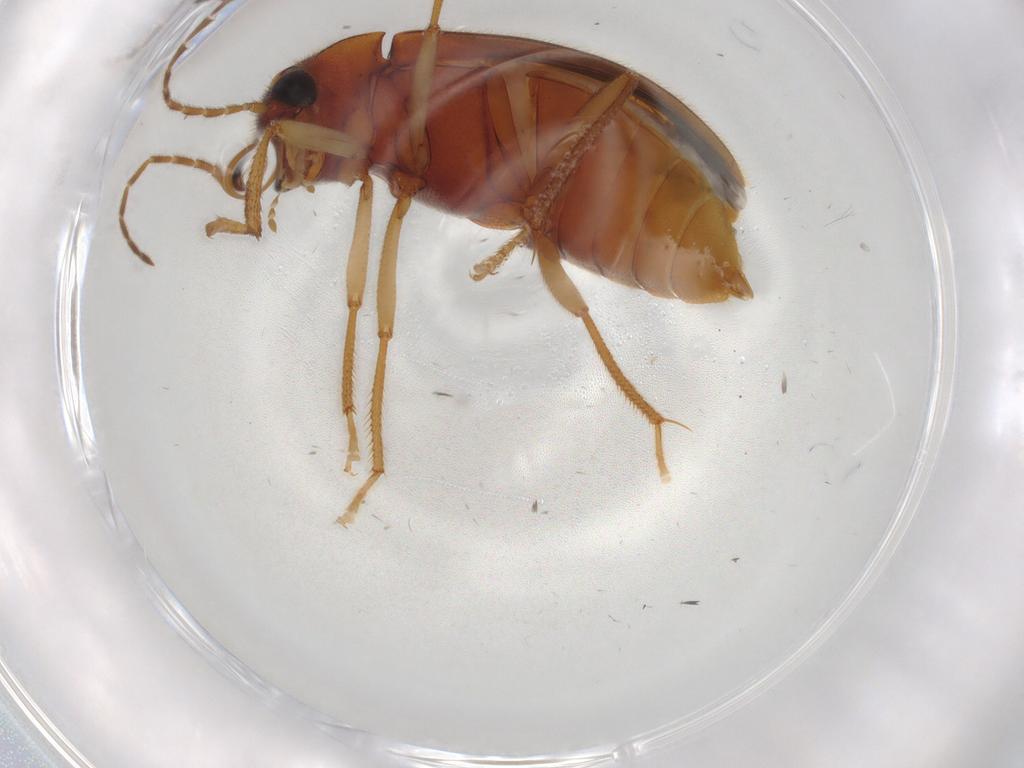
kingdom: Animalia
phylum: Arthropoda
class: Insecta
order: Coleoptera
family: Ptilodactylidae
